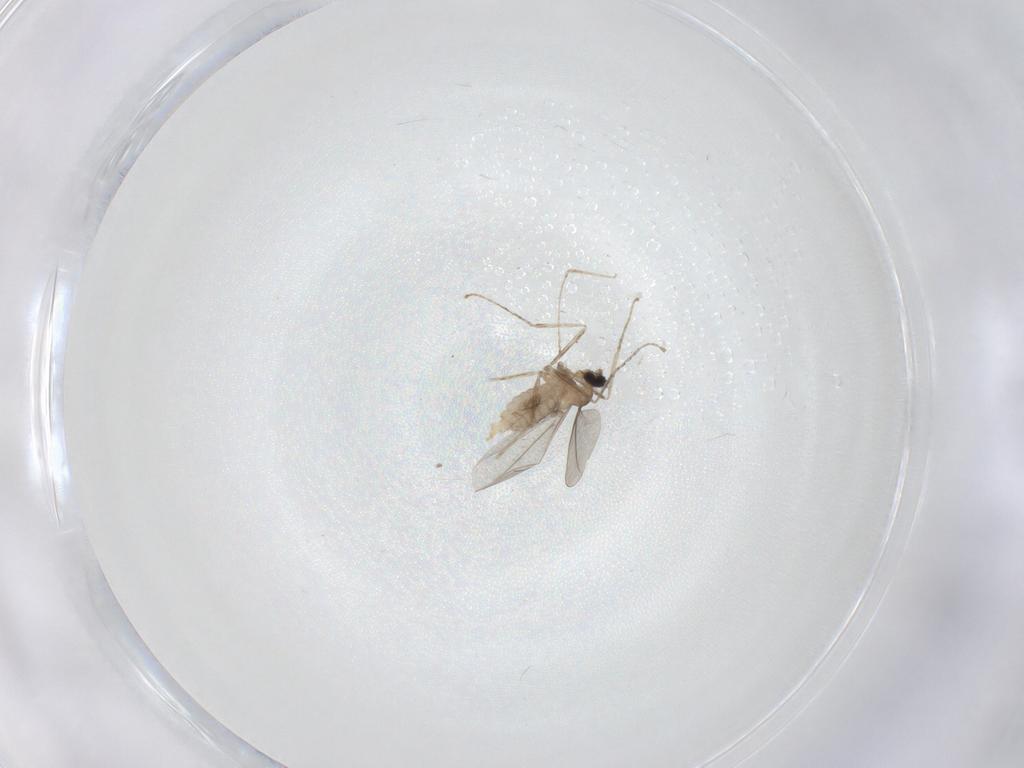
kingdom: Animalia
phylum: Arthropoda
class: Insecta
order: Diptera
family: Cecidomyiidae
